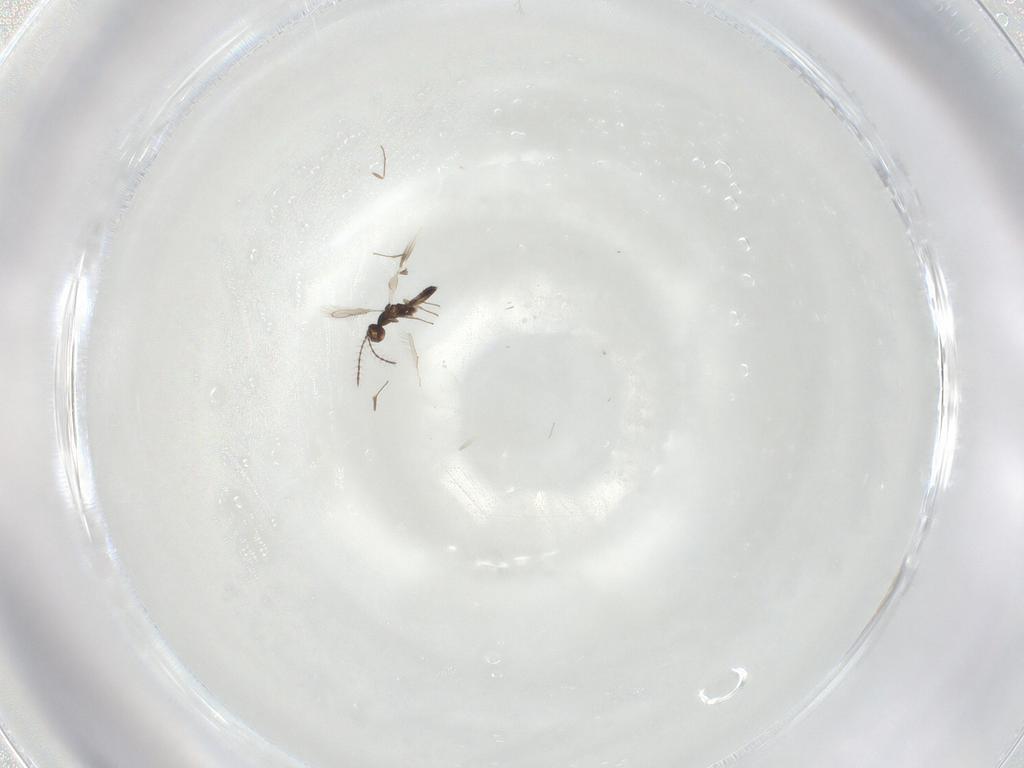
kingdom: Animalia
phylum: Arthropoda
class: Insecta
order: Hymenoptera
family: Pteromalidae
